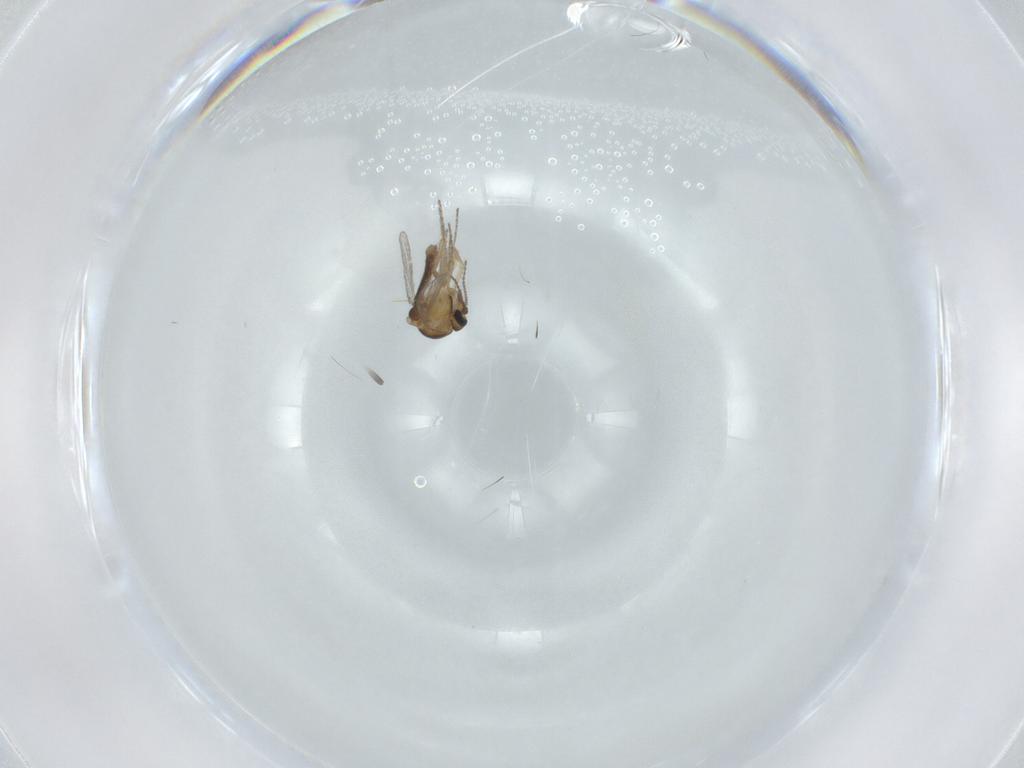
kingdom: Animalia
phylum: Arthropoda
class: Insecta
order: Diptera
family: Ceratopogonidae
